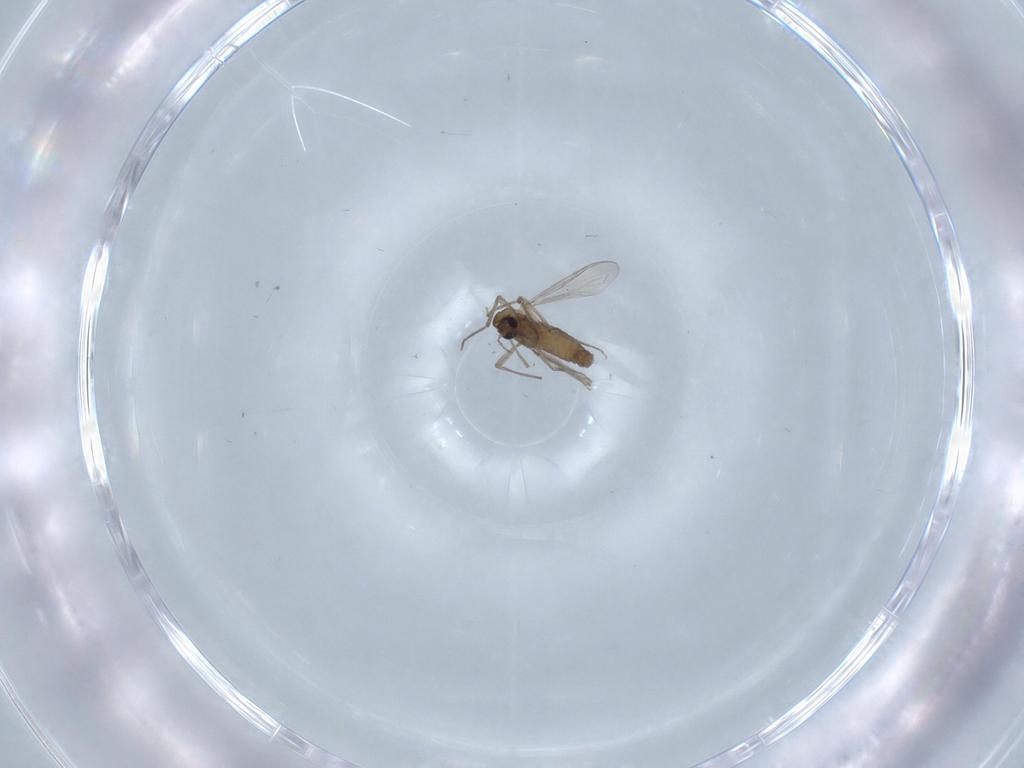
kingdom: Animalia
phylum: Arthropoda
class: Insecta
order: Diptera
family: Chironomidae
